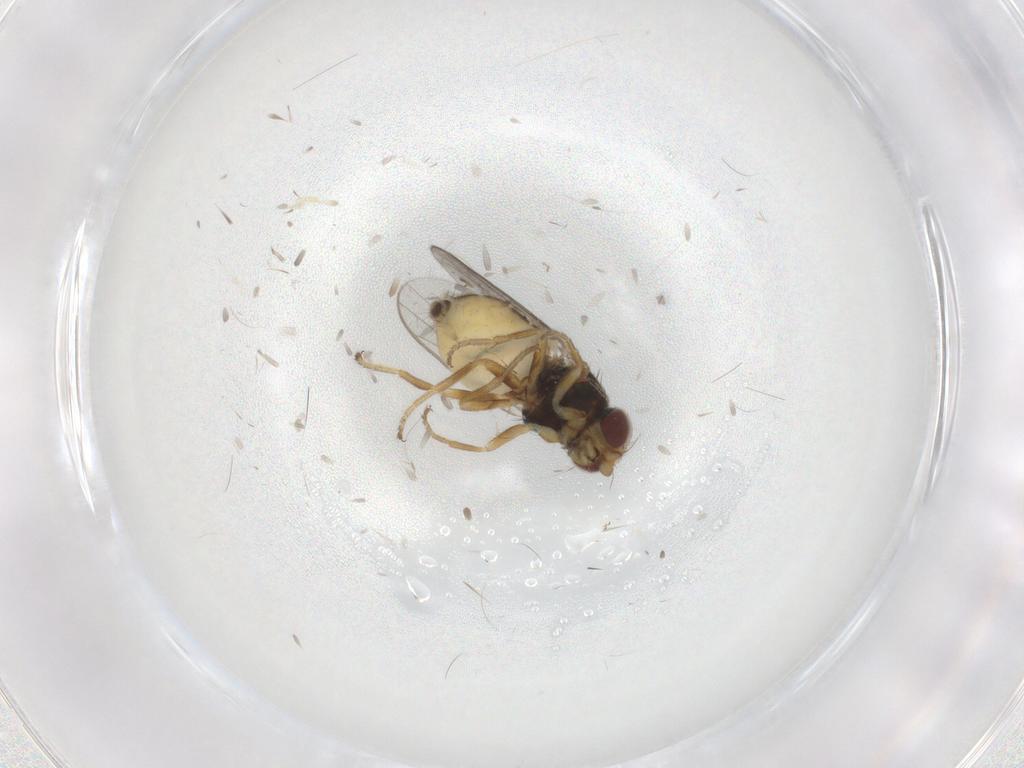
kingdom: Animalia
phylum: Arthropoda
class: Insecta
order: Diptera
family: Chloropidae
